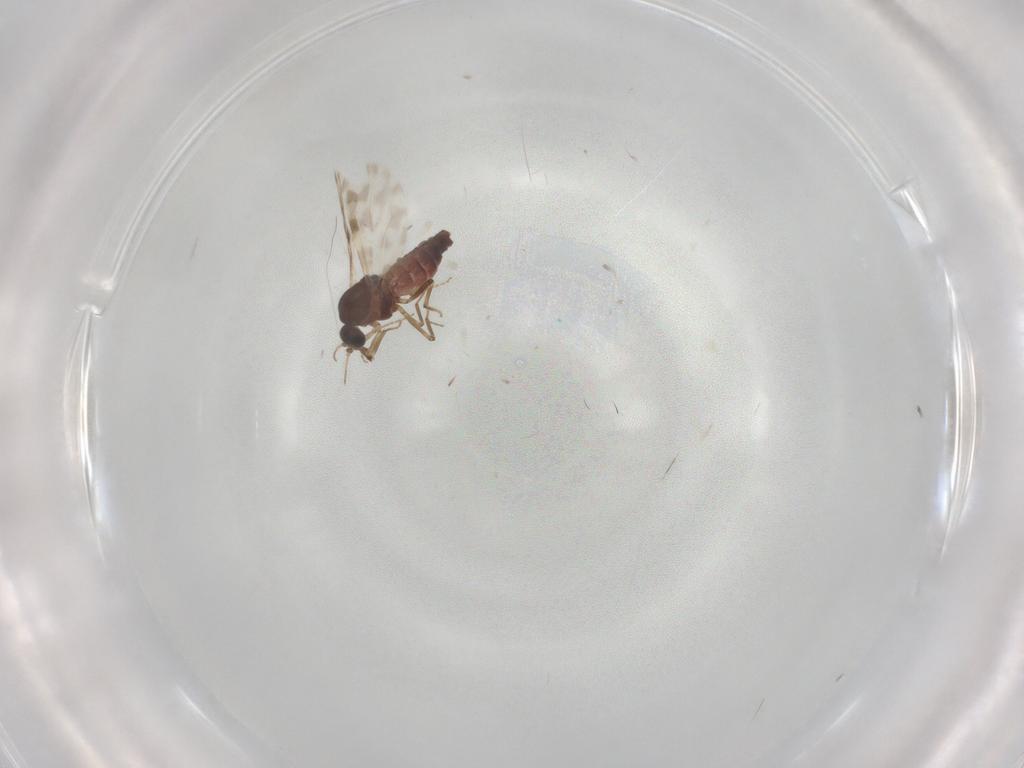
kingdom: Animalia
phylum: Arthropoda
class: Insecta
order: Diptera
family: Ceratopogonidae
